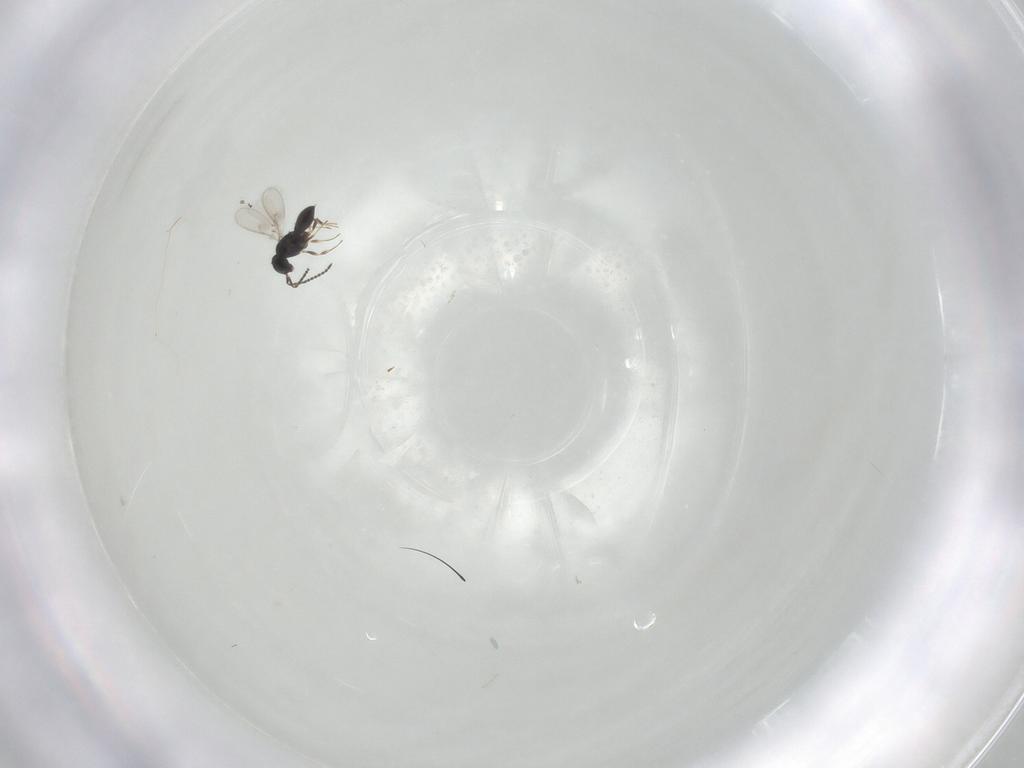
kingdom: Animalia
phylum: Arthropoda
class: Insecta
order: Hymenoptera
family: Scelionidae
